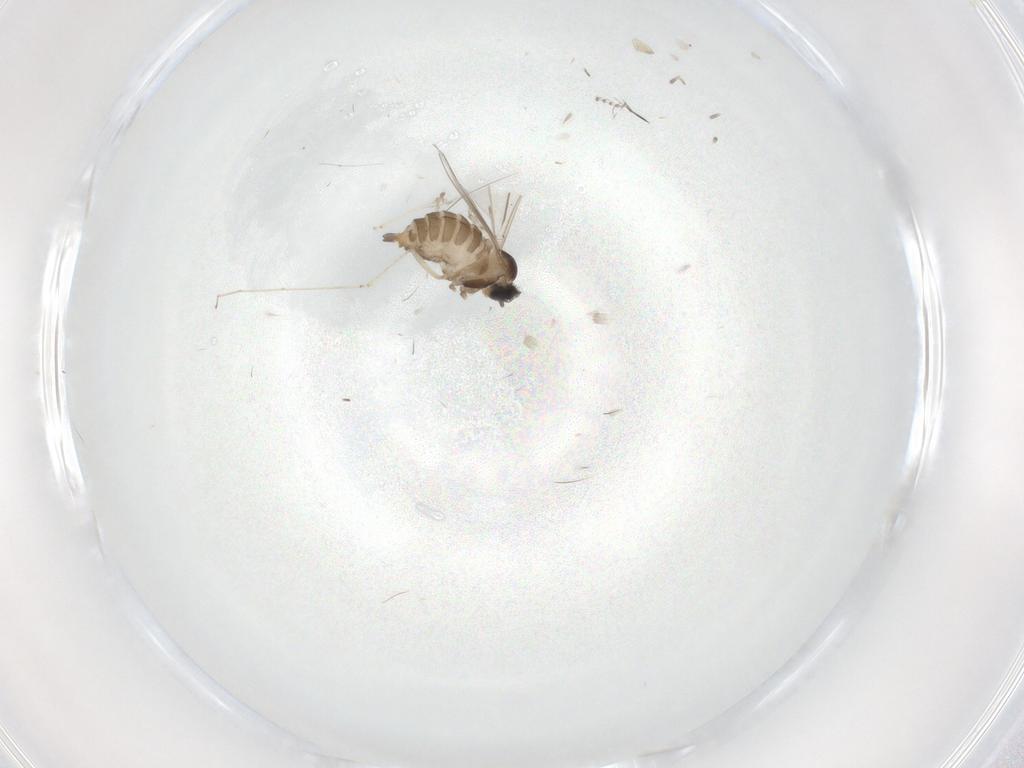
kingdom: Animalia
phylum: Arthropoda
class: Insecta
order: Diptera
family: Cecidomyiidae
